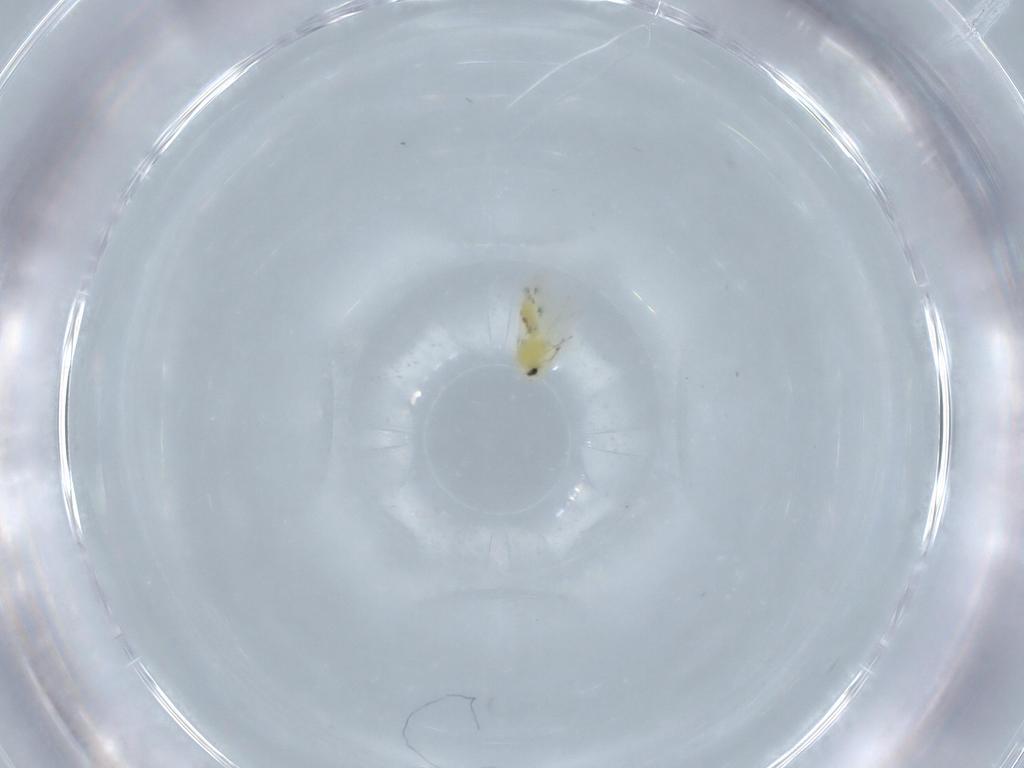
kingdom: Animalia
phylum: Arthropoda
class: Insecta
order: Hemiptera
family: Aleyrodidae
